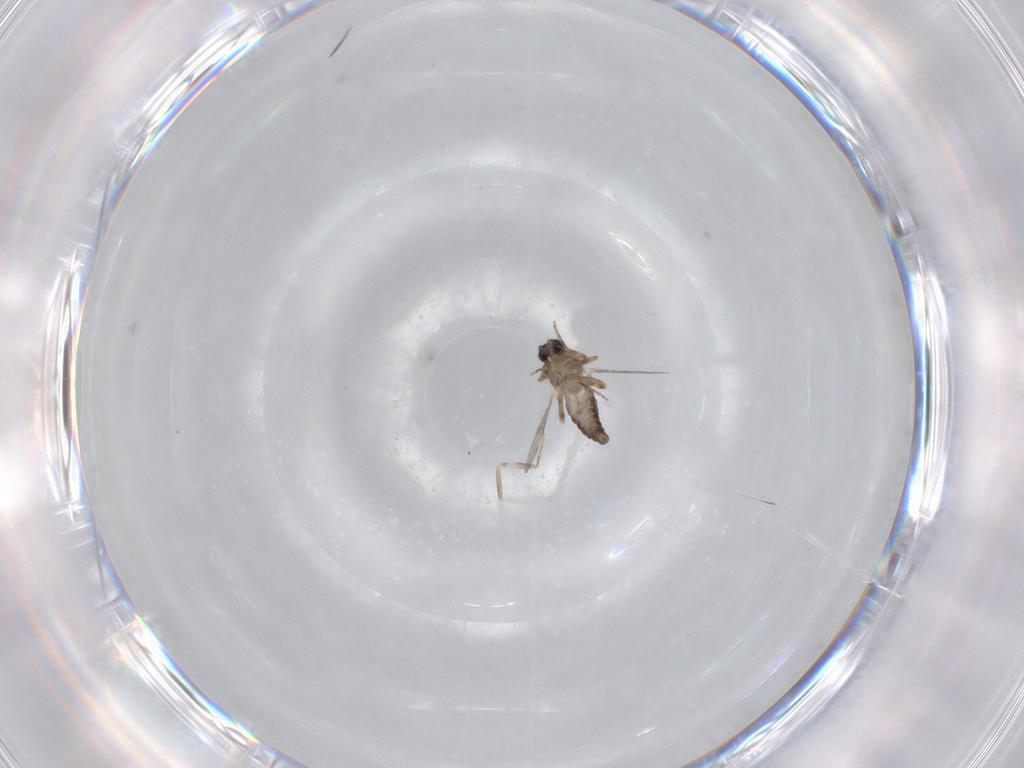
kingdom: Animalia
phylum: Arthropoda
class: Insecta
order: Diptera
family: Ceratopogonidae
